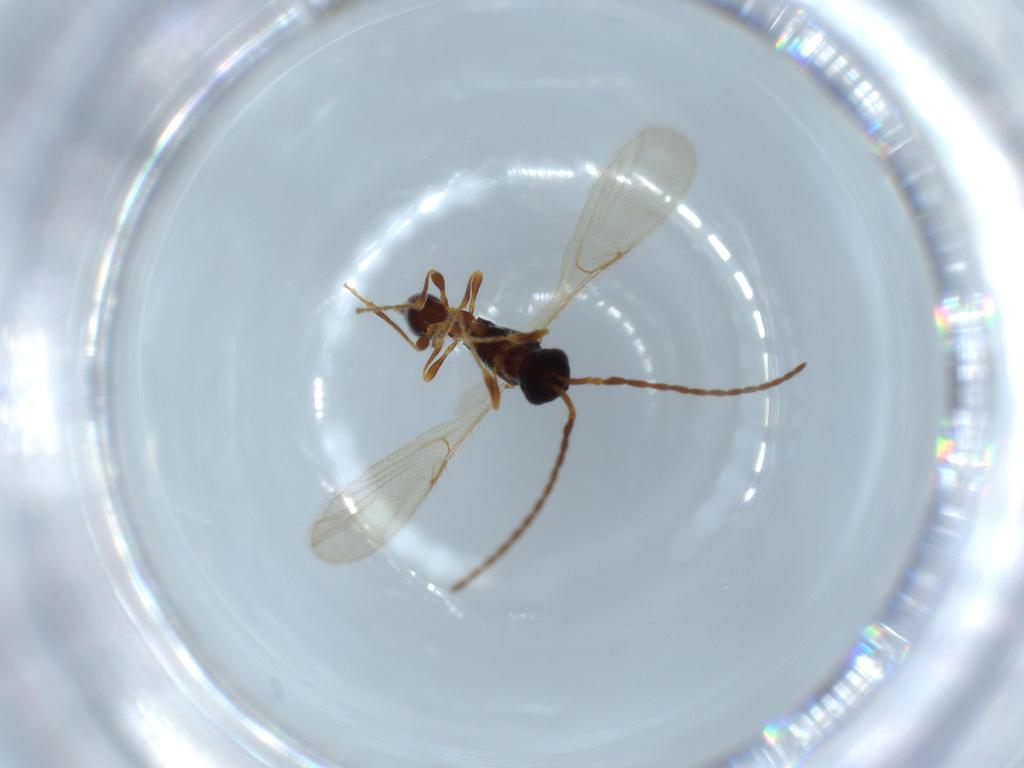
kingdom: Animalia
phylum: Arthropoda
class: Insecta
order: Hymenoptera
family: Diapriidae
